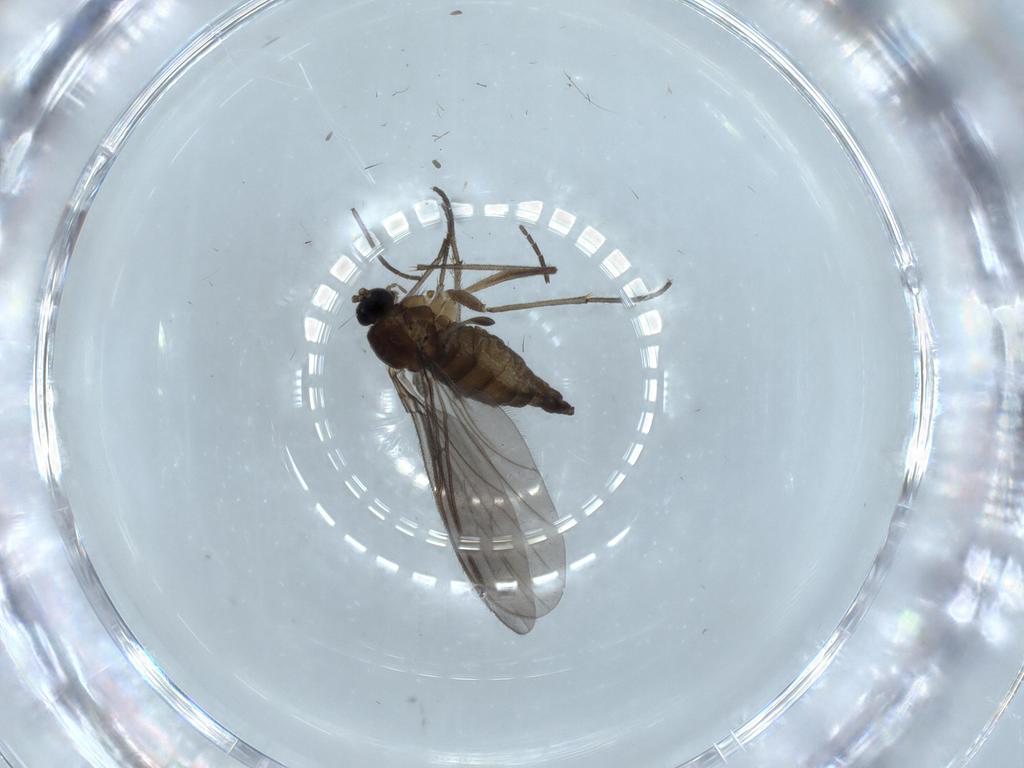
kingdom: Animalia
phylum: Arthropoda
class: Insecta
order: Diptera
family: Sciaridae
